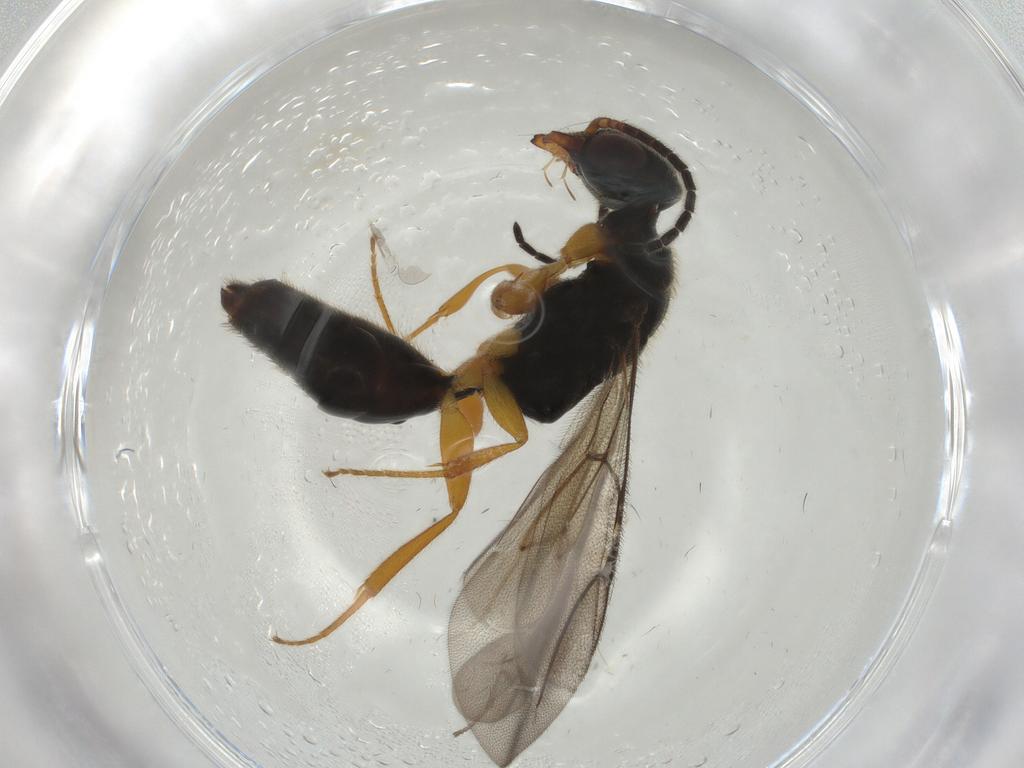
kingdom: Animalia
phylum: Arthropoda
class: Insecta
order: Hymenoptera
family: Bethylidae
